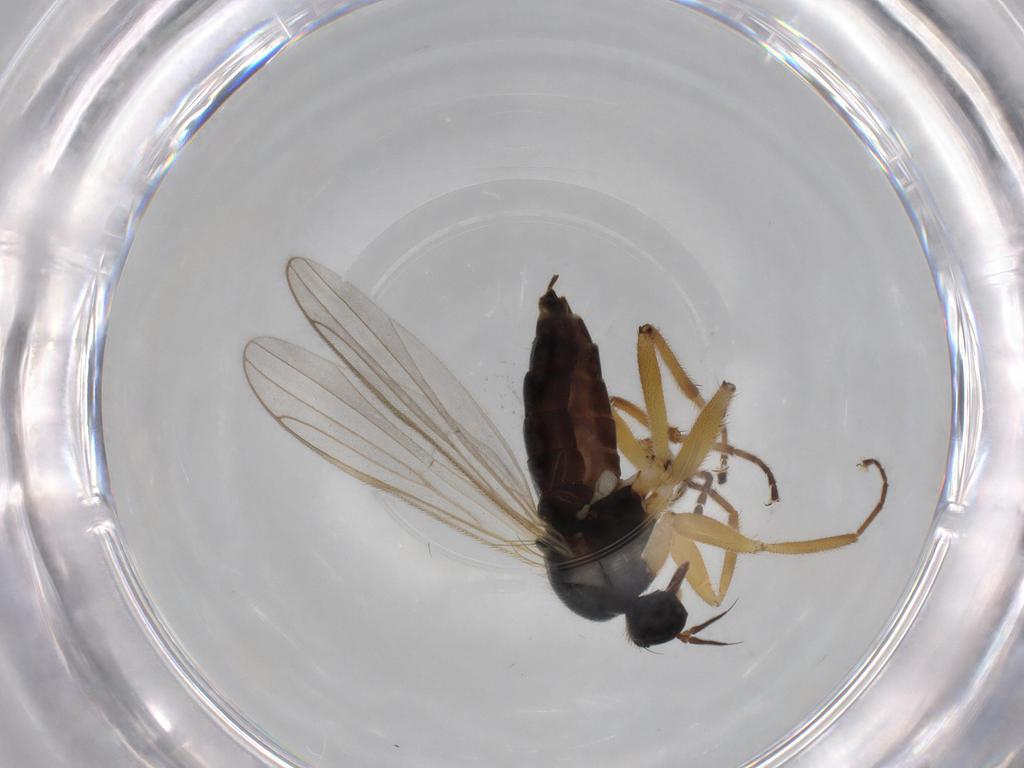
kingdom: Animalia
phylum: Arthropoda
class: Insecta
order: Diptera
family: Sciaridae
